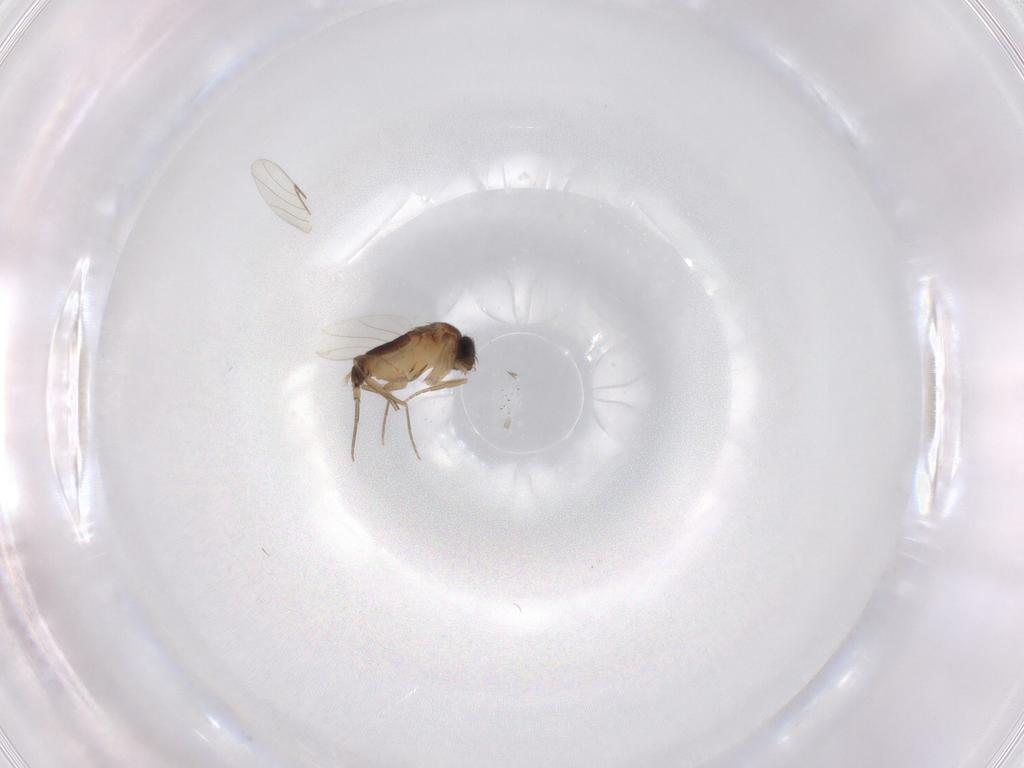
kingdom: Animalia
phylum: Arthropoda
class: Insecta
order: Diptera
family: Phoridae
